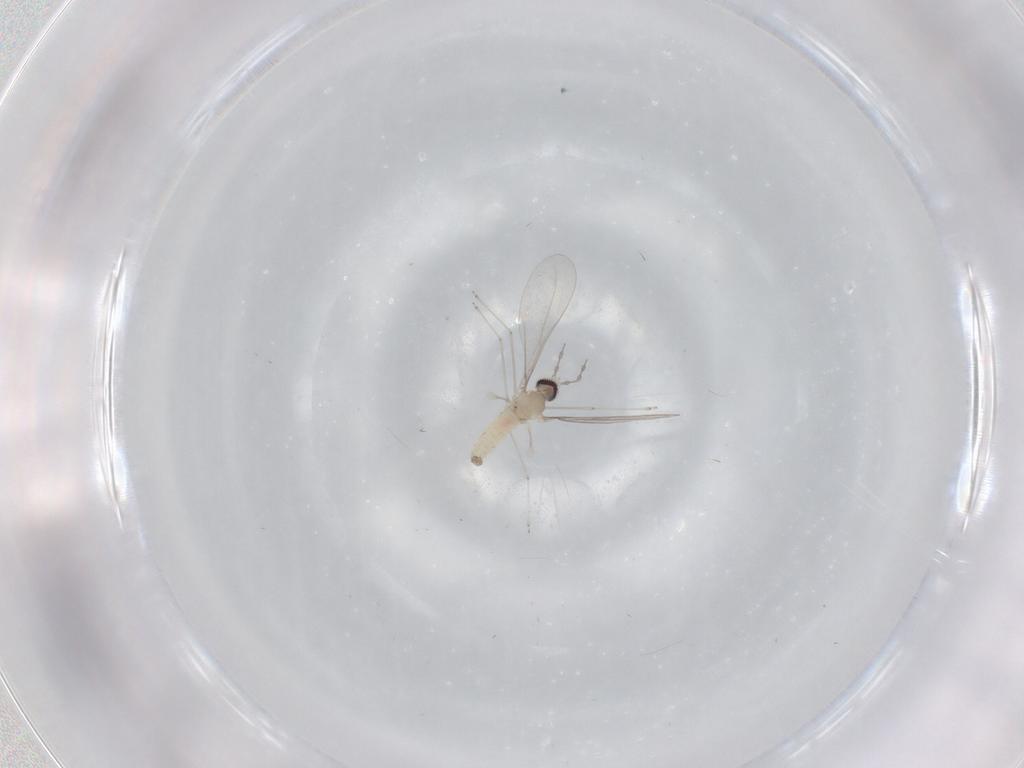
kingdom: Animalia
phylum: Arthropoda
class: Insecta
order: Diptera
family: Cecidomyiidae
